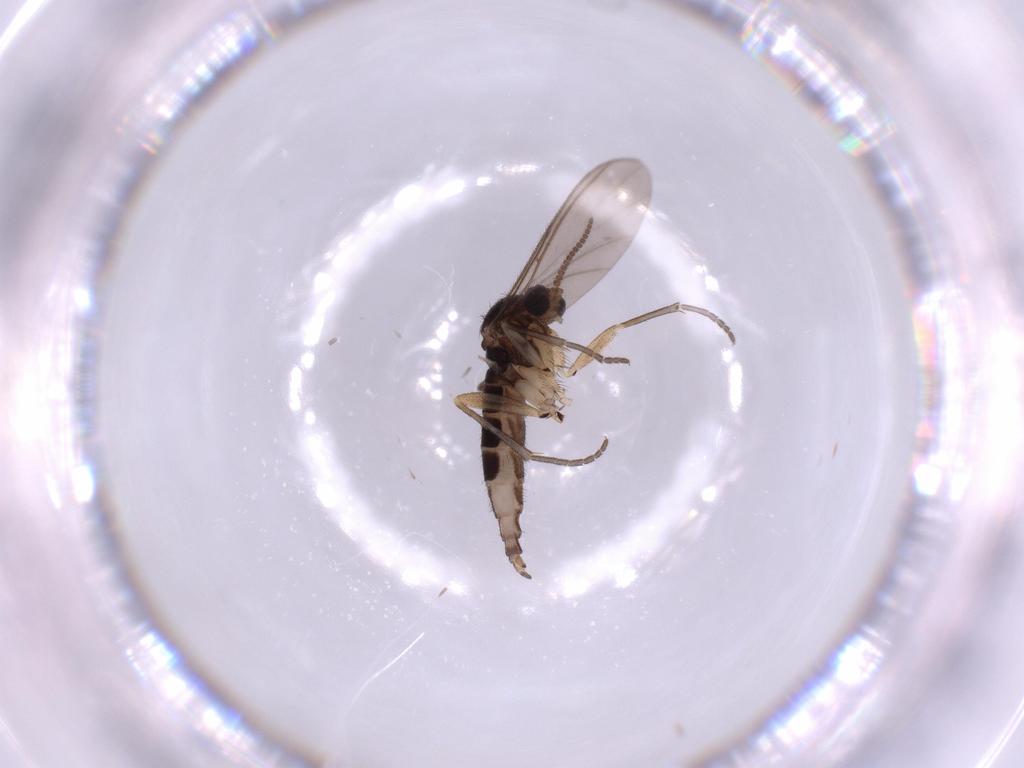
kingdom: Animalia
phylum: Arthropoda
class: Insecta
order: Diptera
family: Sciaridae
